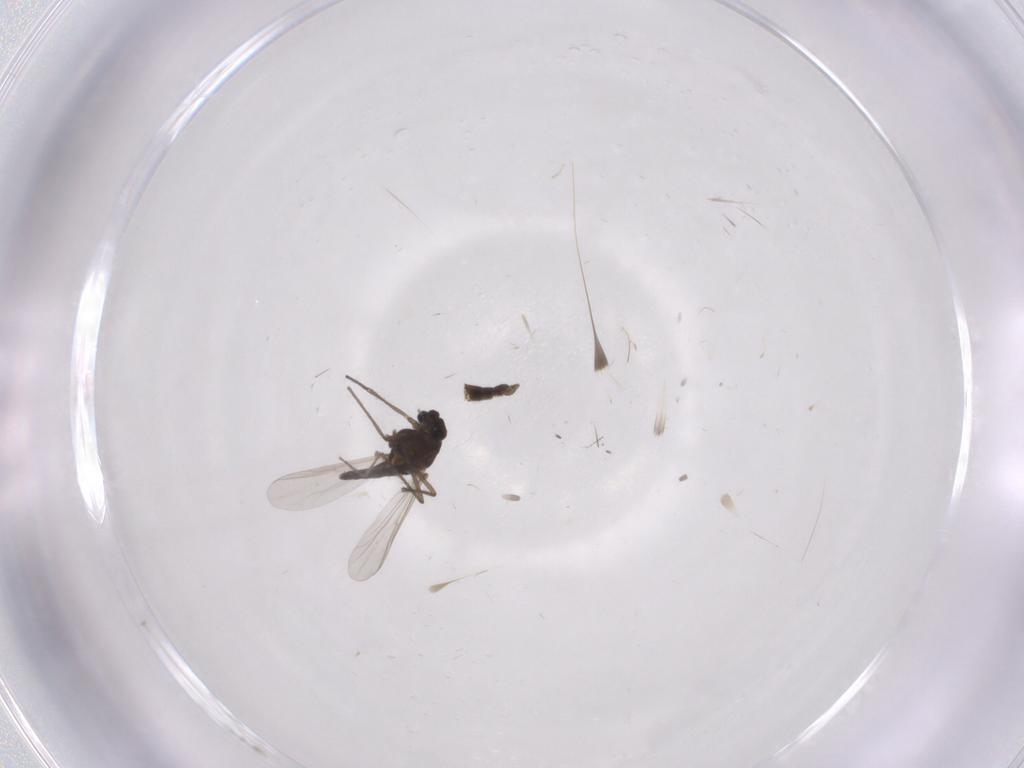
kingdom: Animalia
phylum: Arthropoda
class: Insecta
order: Diptera
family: Chironomidae
